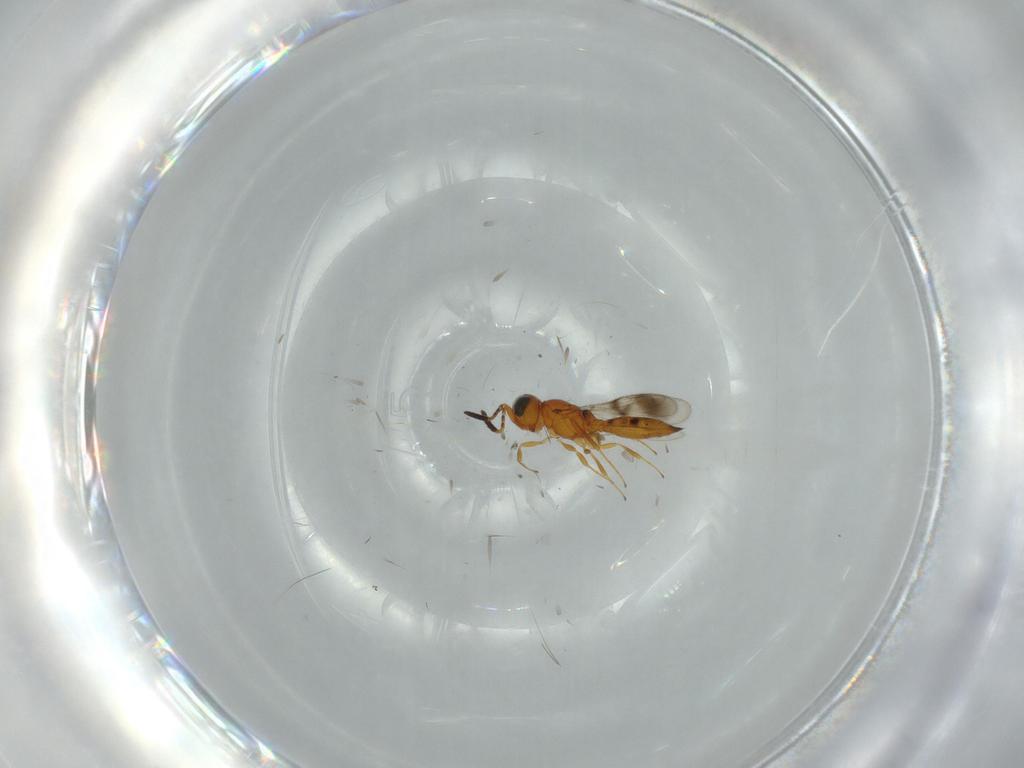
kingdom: Animalia
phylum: Arthropoda
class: Insecta
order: Hymenoptera
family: Scelionidae
